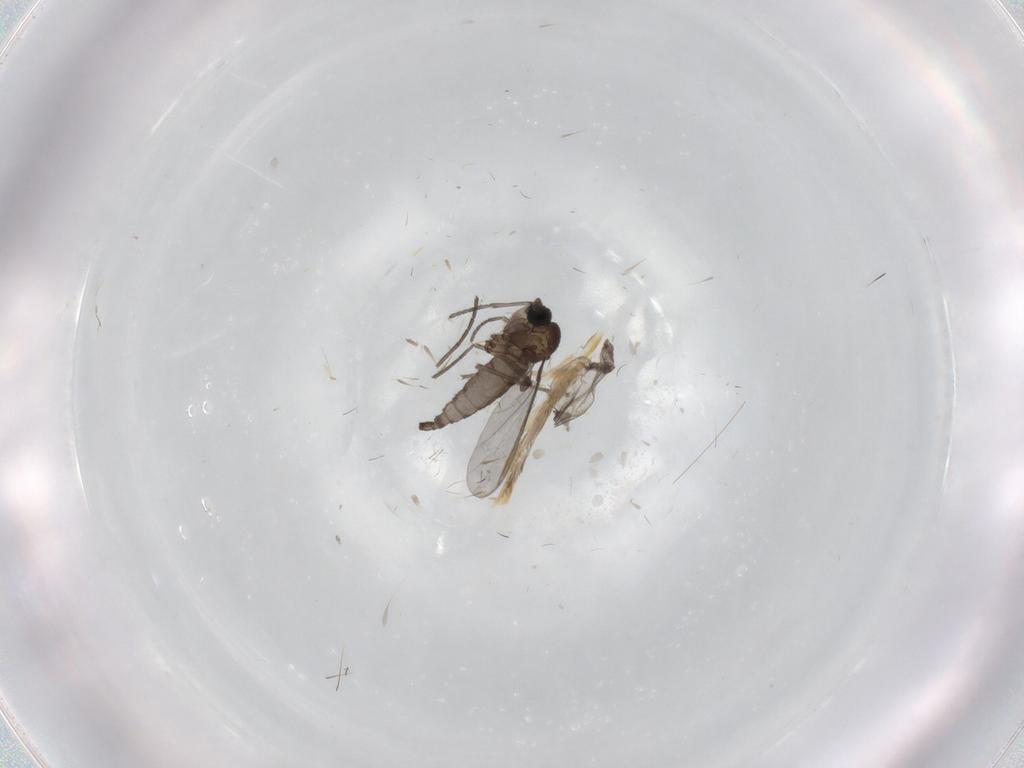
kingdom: Animalia
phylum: Arthropoda
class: Insecta
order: Diptera
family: Sciaridae
